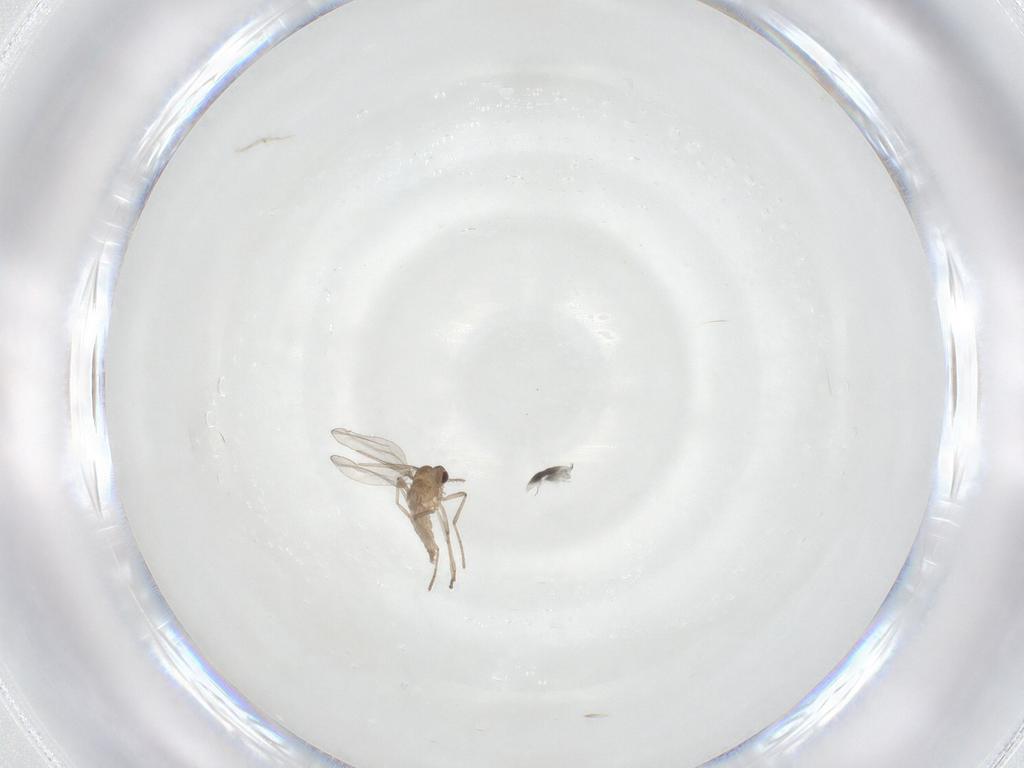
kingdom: Animalia
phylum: Arthropoda
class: Insecta
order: Diptera
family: Cecidomyiidae
